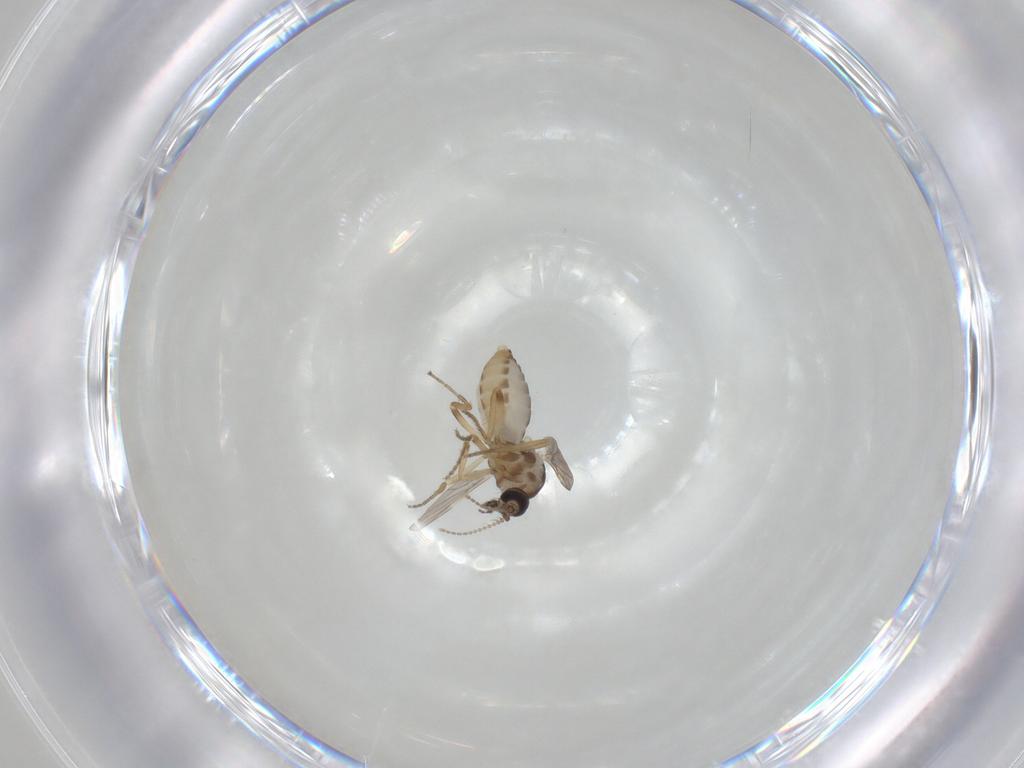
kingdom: Animalia
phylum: Arthropoda
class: Insecta
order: Diptera
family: Ceratopogonidae
